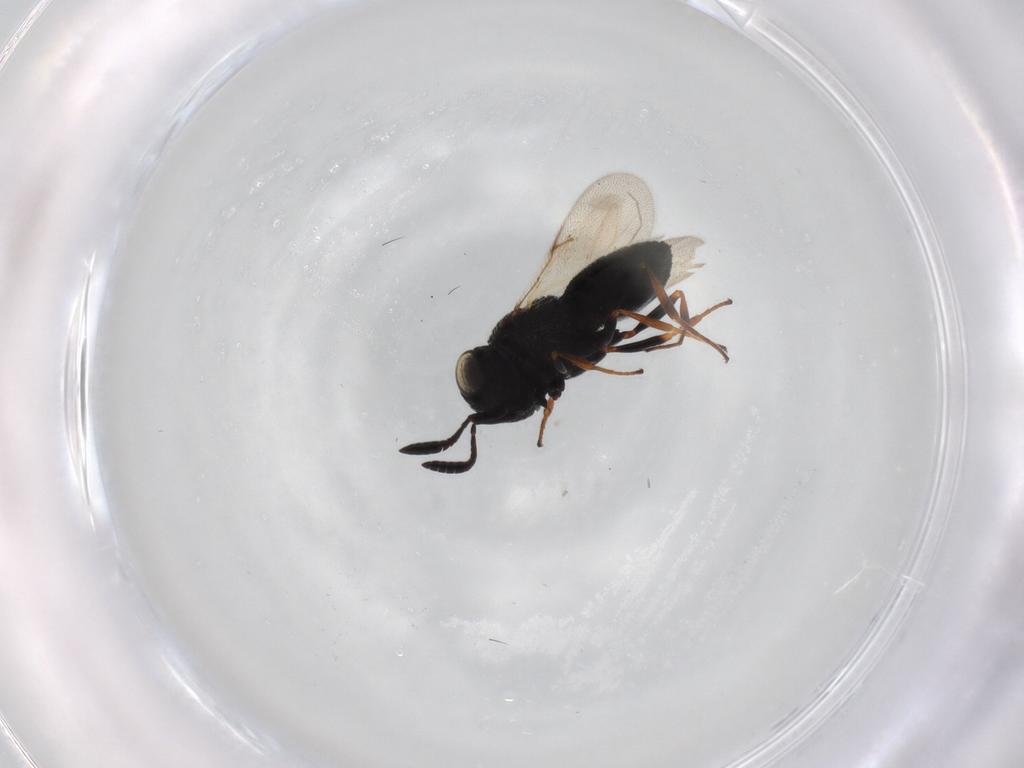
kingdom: Animalia
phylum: Arthropoda
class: Insecta
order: Hymenoptera
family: Scelionidae
